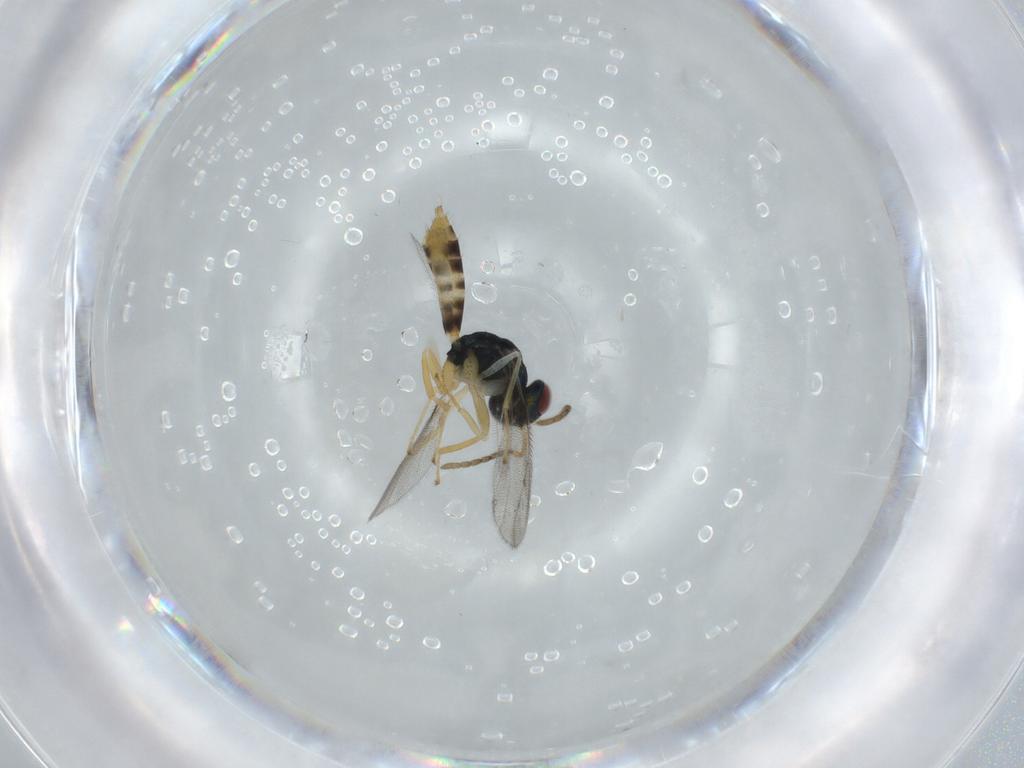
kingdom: Animalia
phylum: Arthropoda
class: Insecta
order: Hymenoptera
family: Pteromalidae
